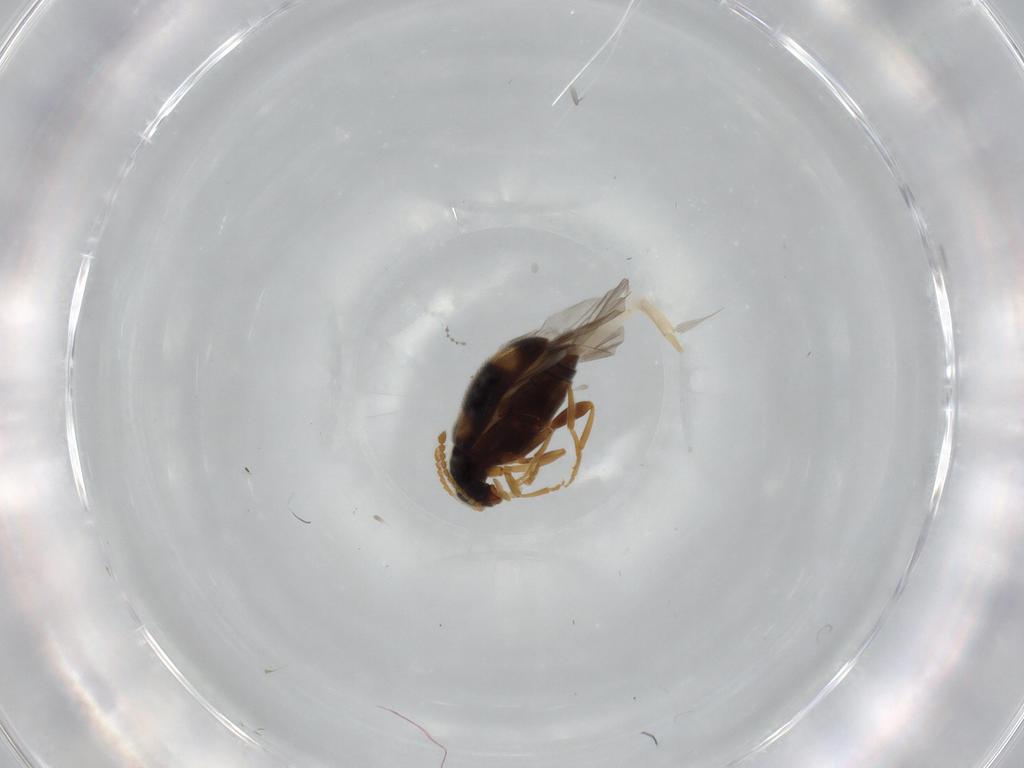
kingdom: Animalia
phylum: Arthropoda
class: Insecta
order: Coleoptera
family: Aderidae
